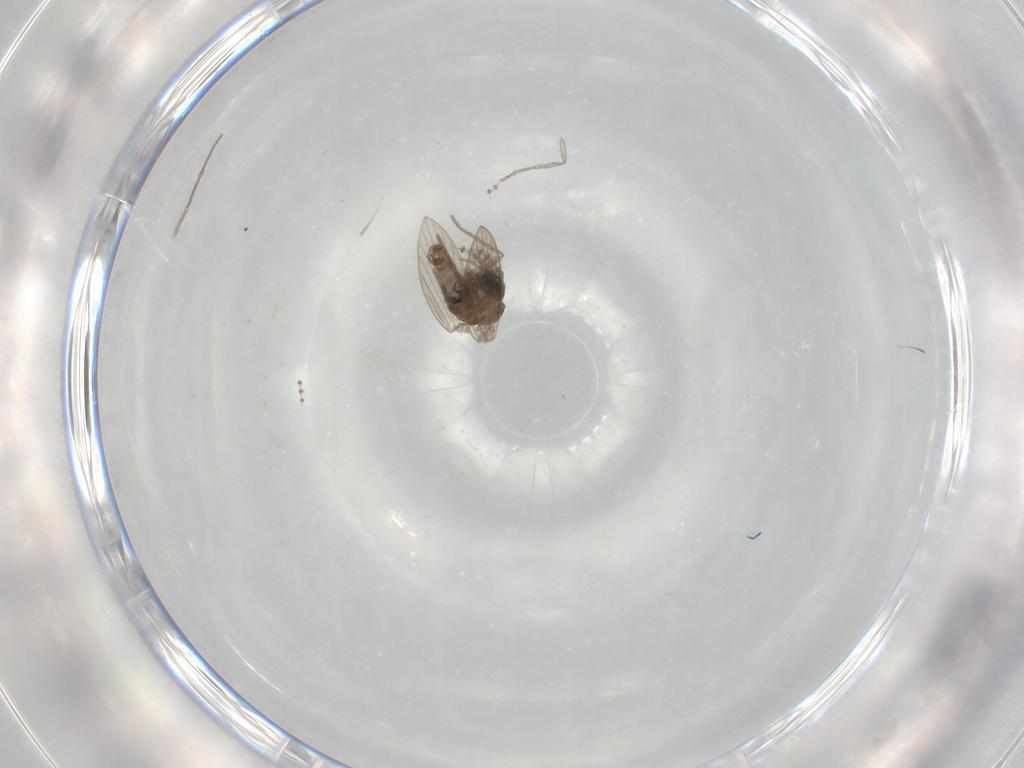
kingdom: Animalia
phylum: Arthropoda
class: Insecta
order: Diptera
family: Psychodidae
